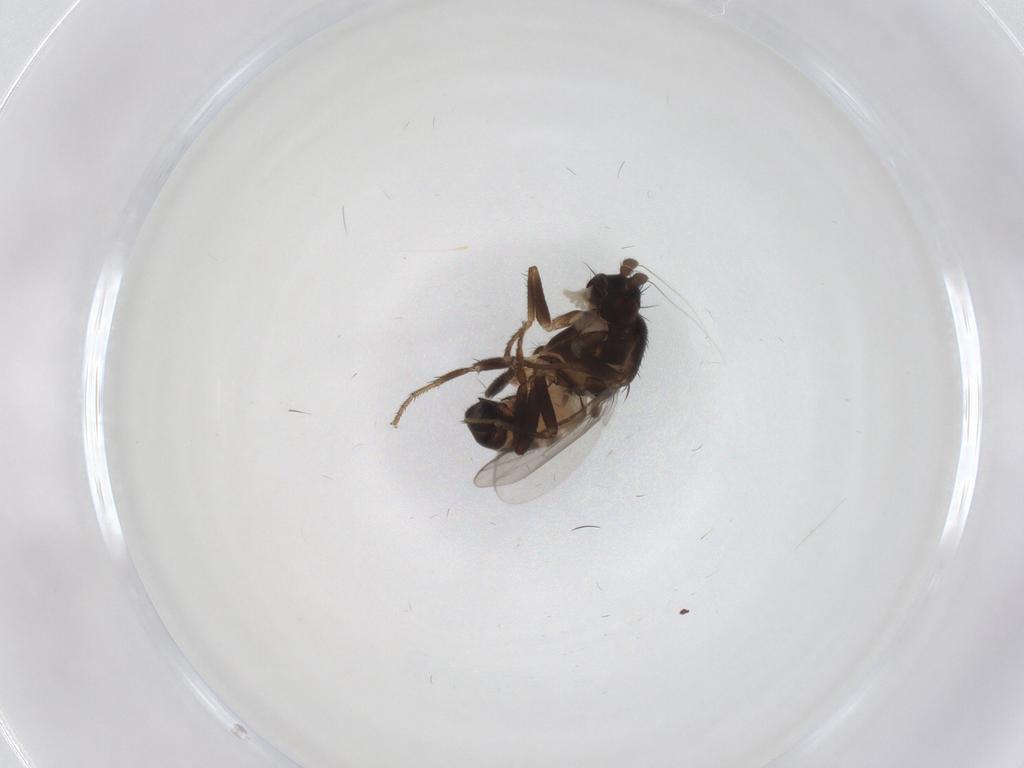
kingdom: Animalia
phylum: Arthropoda
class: Insecta
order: Diptera
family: Sphaeroceridae
